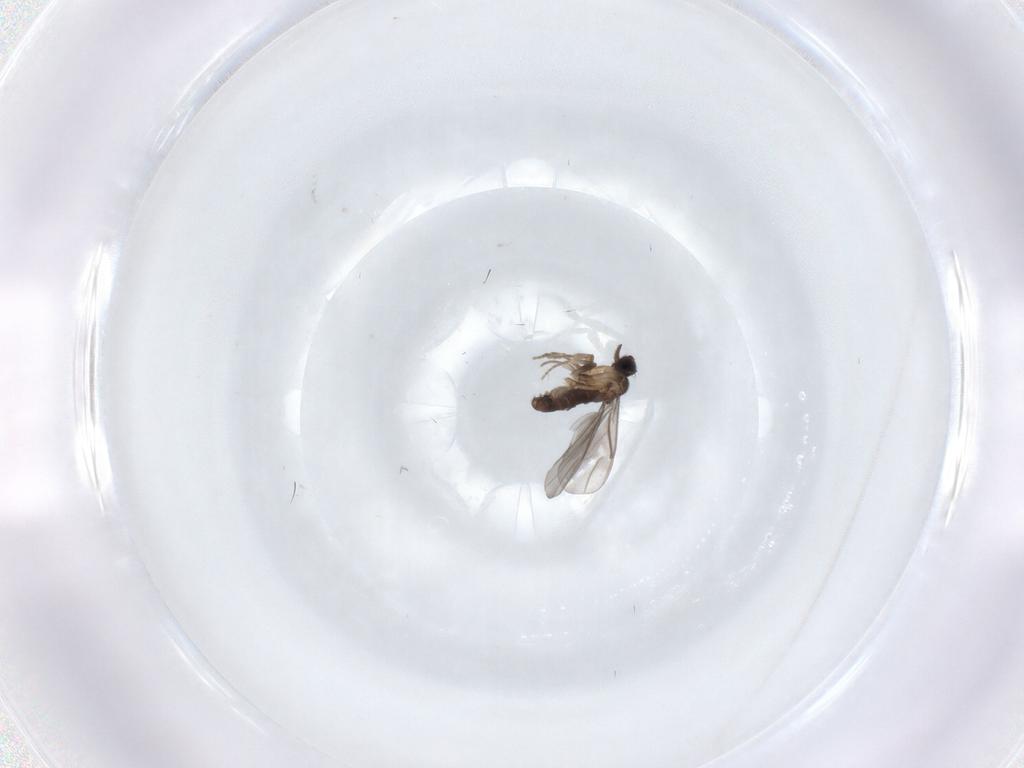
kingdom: Animalia
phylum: Arthropoda
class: Insecta
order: Diptera
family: Chironomidae
